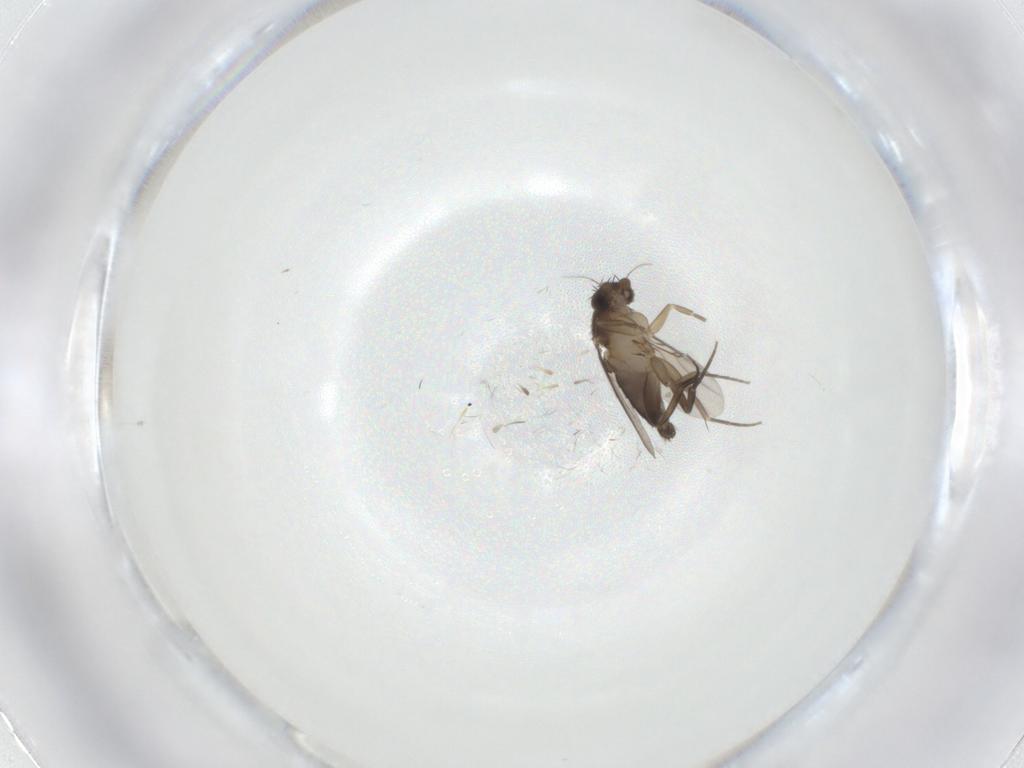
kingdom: Animalia
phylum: Arthropoda
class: Insecta
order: Diptera
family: Phoridae
